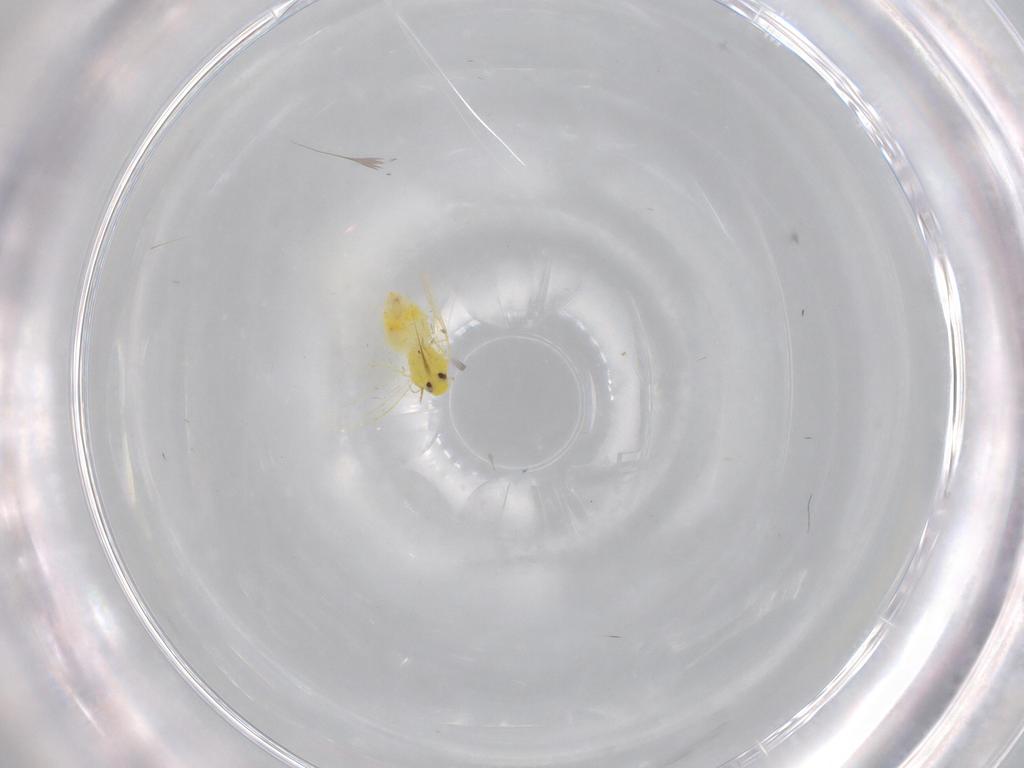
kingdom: Animalia
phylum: Arthropoda
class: Insecta
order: Hemiptera
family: Aleyrodidae
